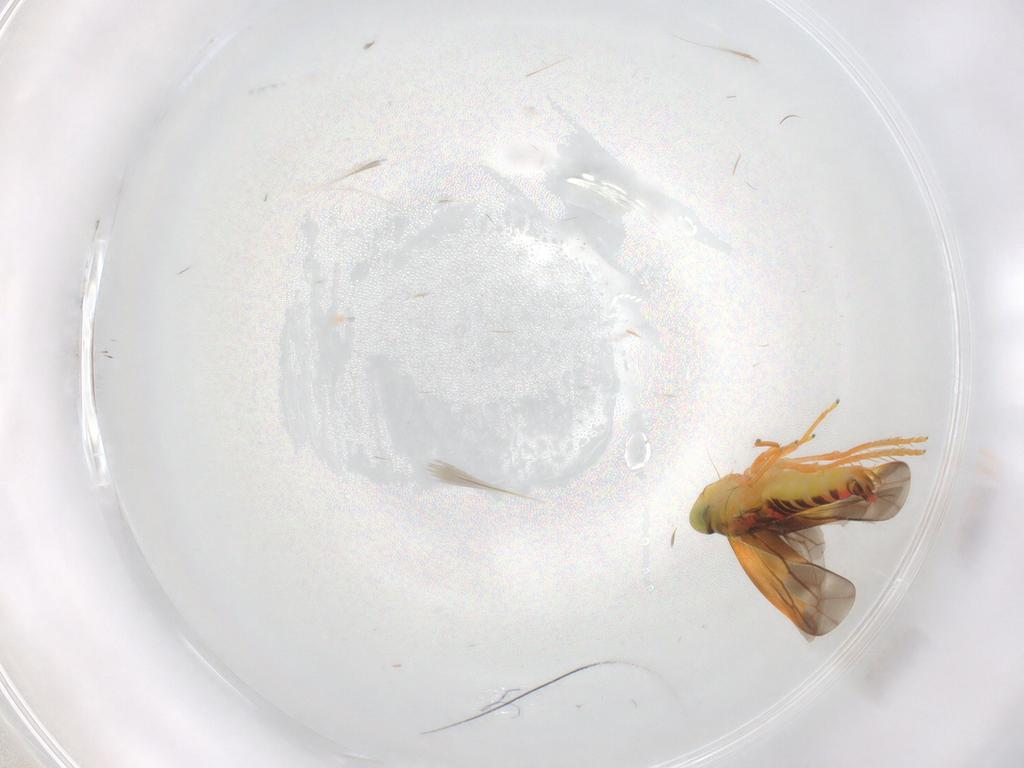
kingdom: Animalia
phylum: Arthropoda
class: Insecta
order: Hemiptera
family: Cicadellidae
